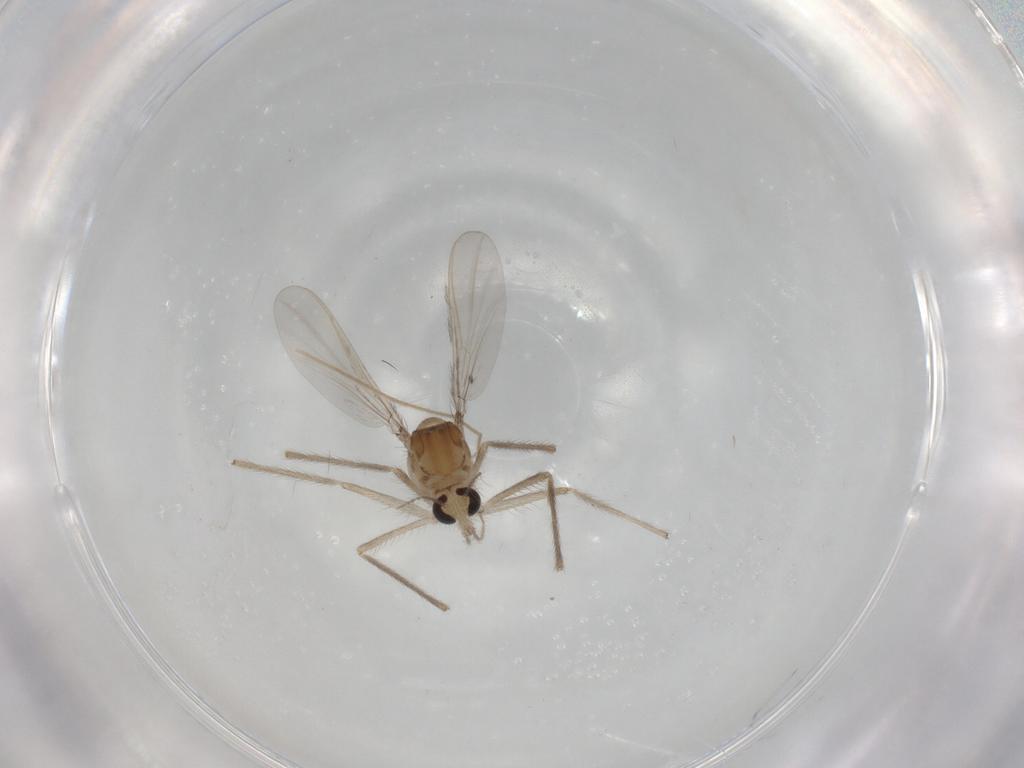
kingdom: Animalia
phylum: Arthropoda
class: Insecta
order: Diptera
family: Chironomidae
